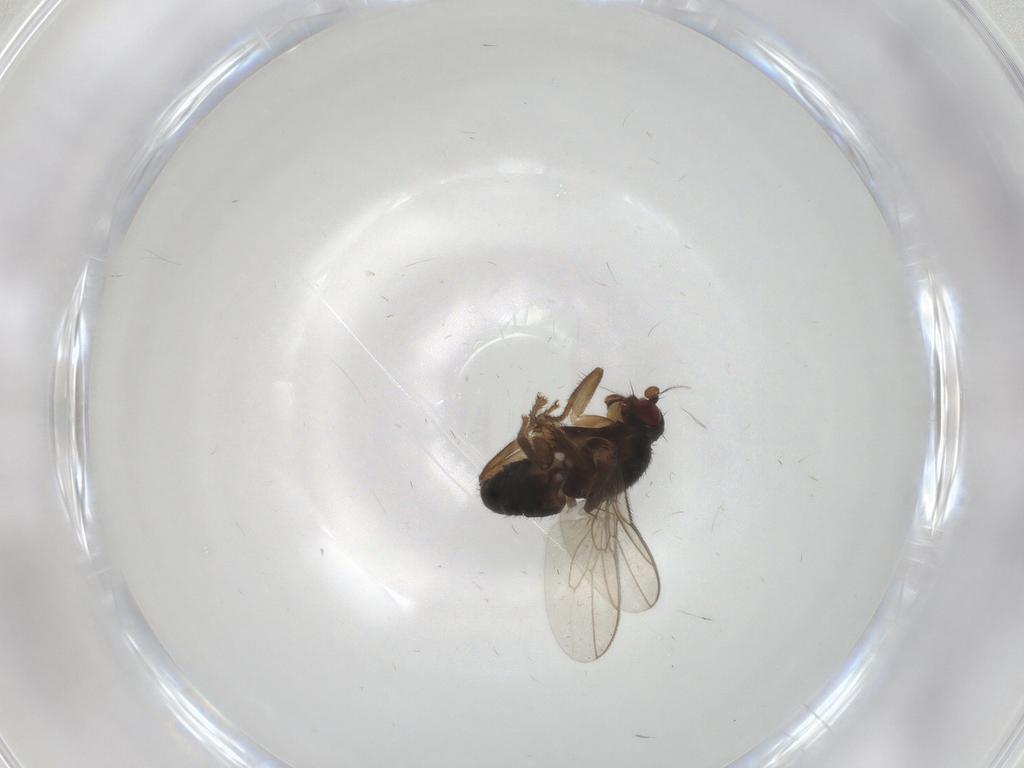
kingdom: Animalia
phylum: Arthropoda
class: Insecta
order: Diptera
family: Sphaeroceridae
